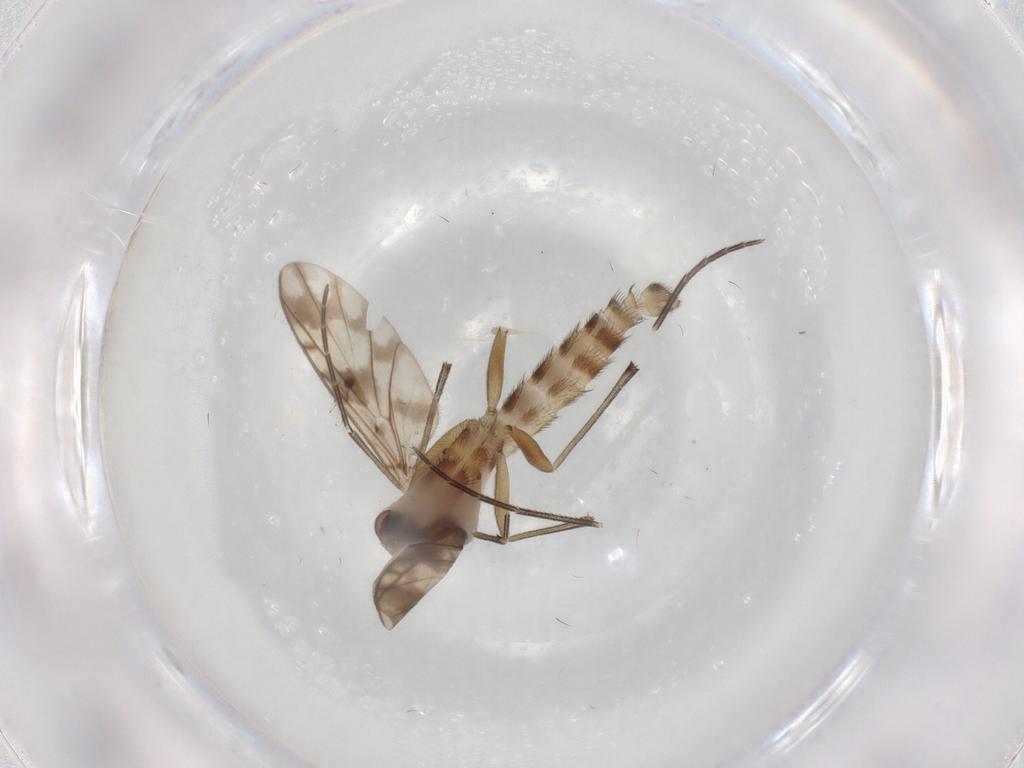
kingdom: Animalia
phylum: Arthropoda
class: Insecta
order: Diptera
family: Keroplatidae
